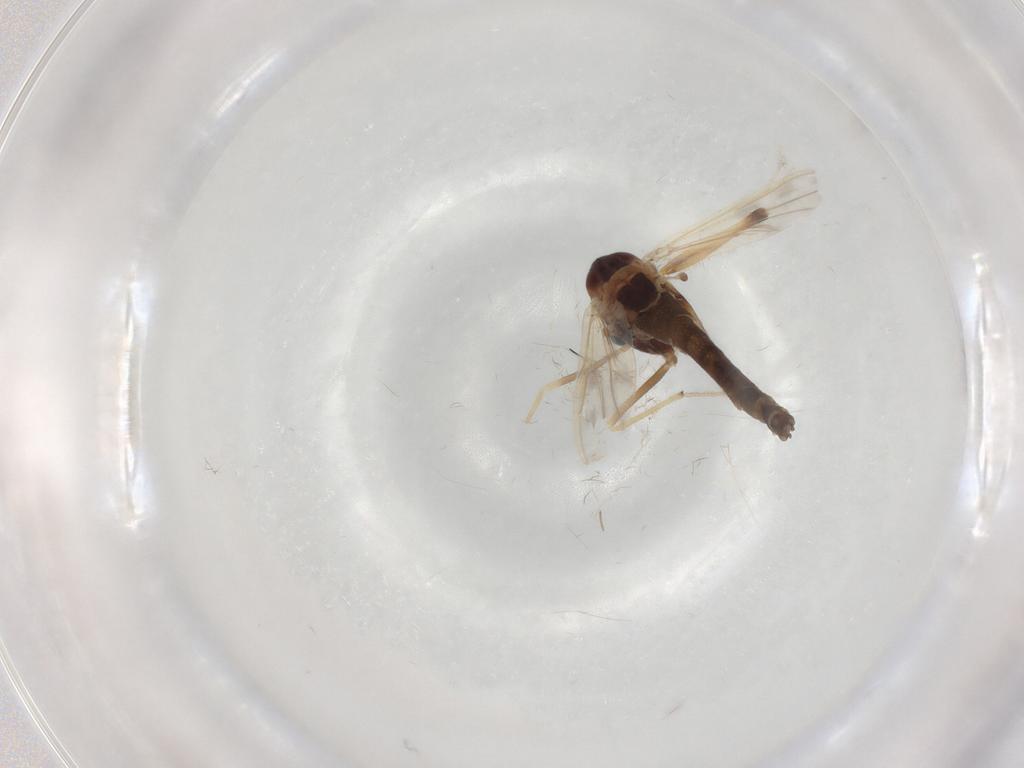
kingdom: Animalia
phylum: Arthropoda
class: Insecta
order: Diptera
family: Chironomidae
